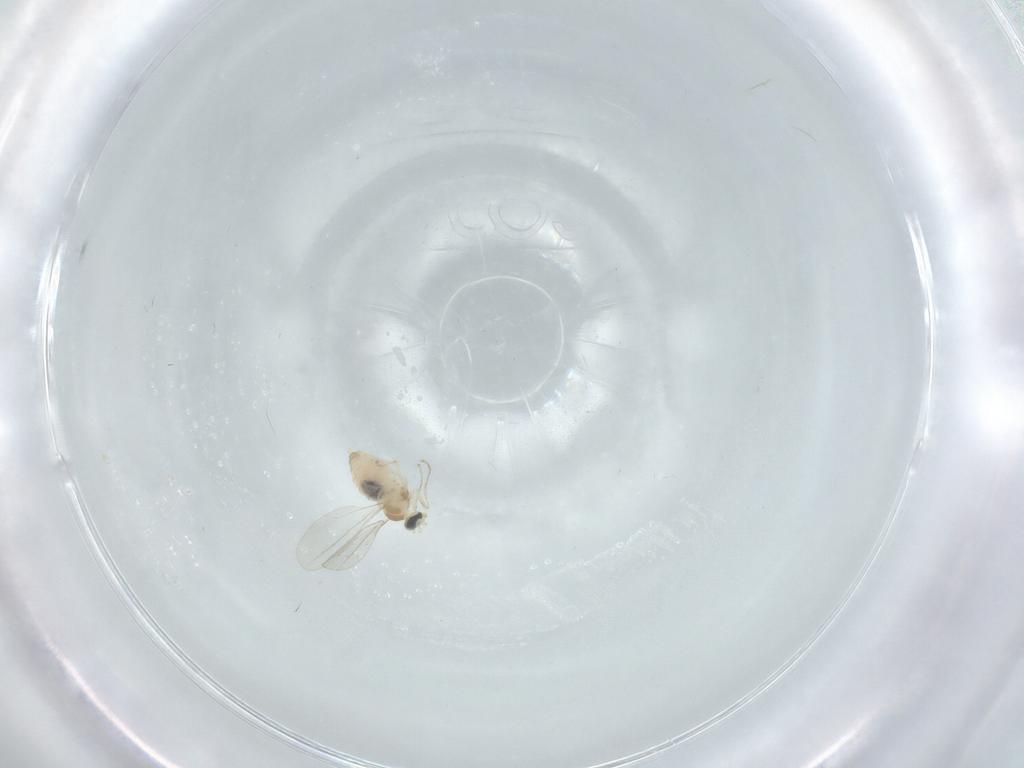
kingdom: Animalia
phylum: Arthropoda
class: Insecta
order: Diptera
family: Cecidomyiidae
